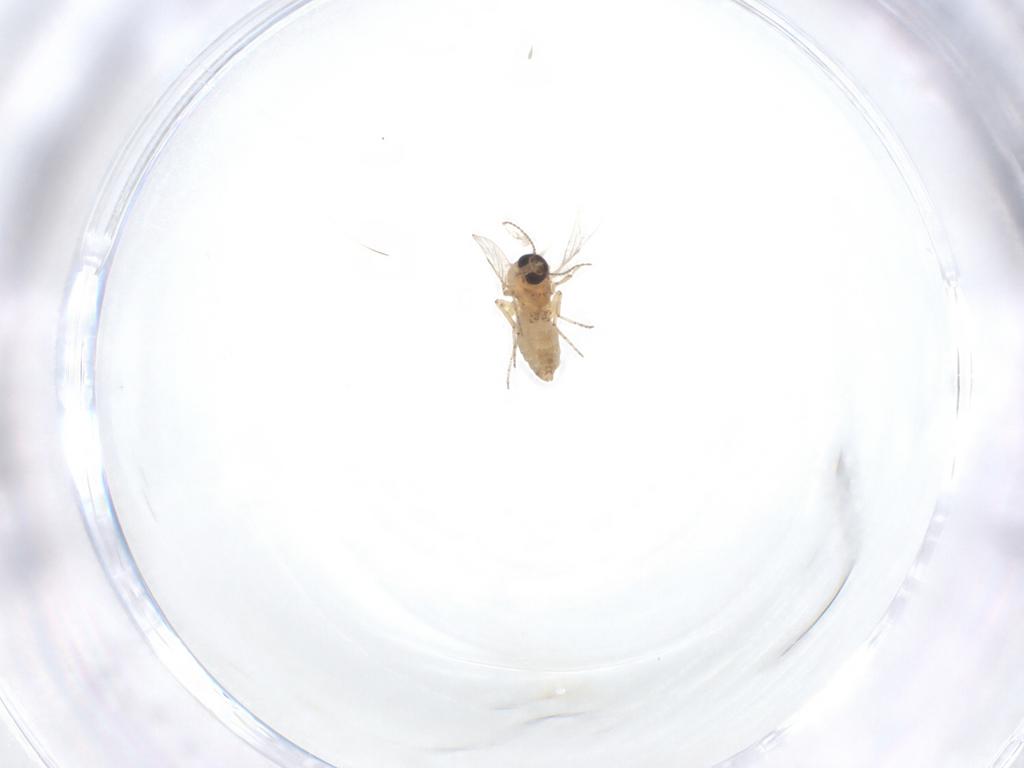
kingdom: Animalia
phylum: Arthropoda
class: Insecta
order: Diptera
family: Ceratopogonidae
